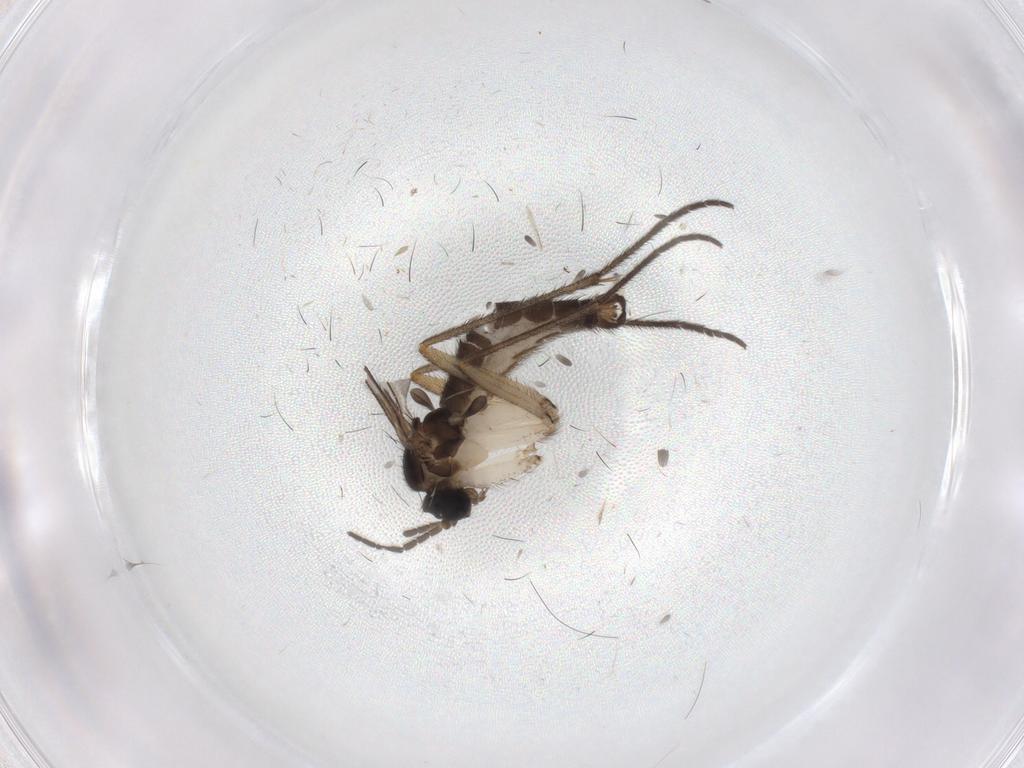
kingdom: Animalia
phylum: Arthropoda
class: Insecta
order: Diptera
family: Sciaridae
